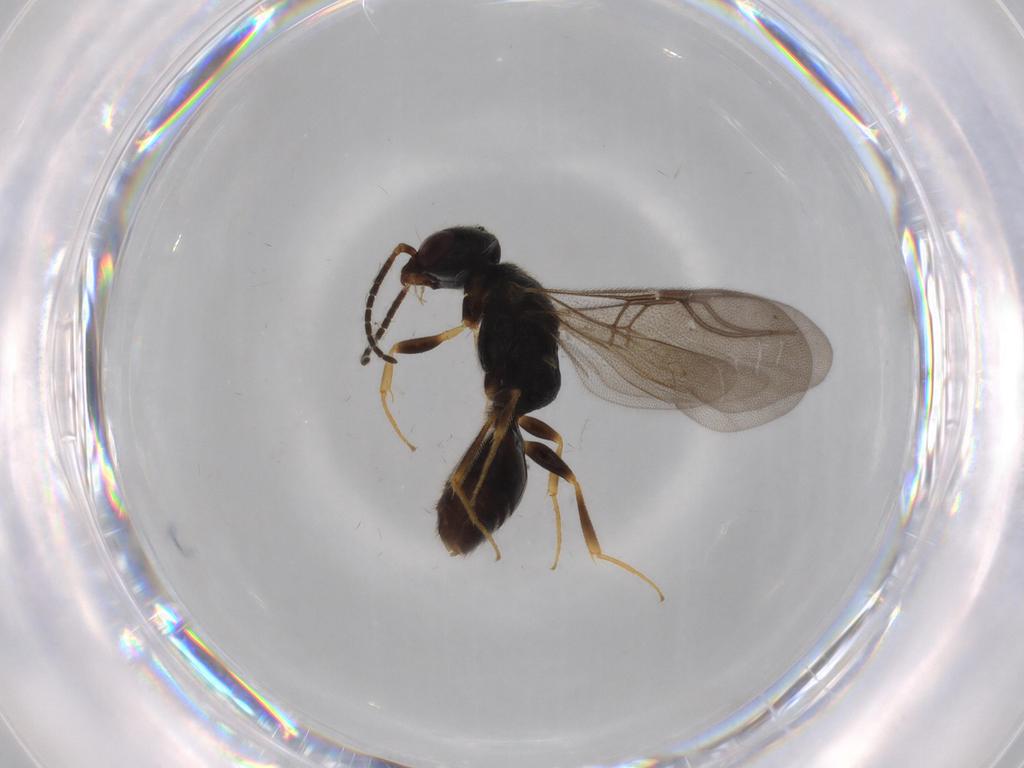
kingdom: Animalia
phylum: Arthropoda
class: Insecta
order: Hymenoptera
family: Bethylidae
